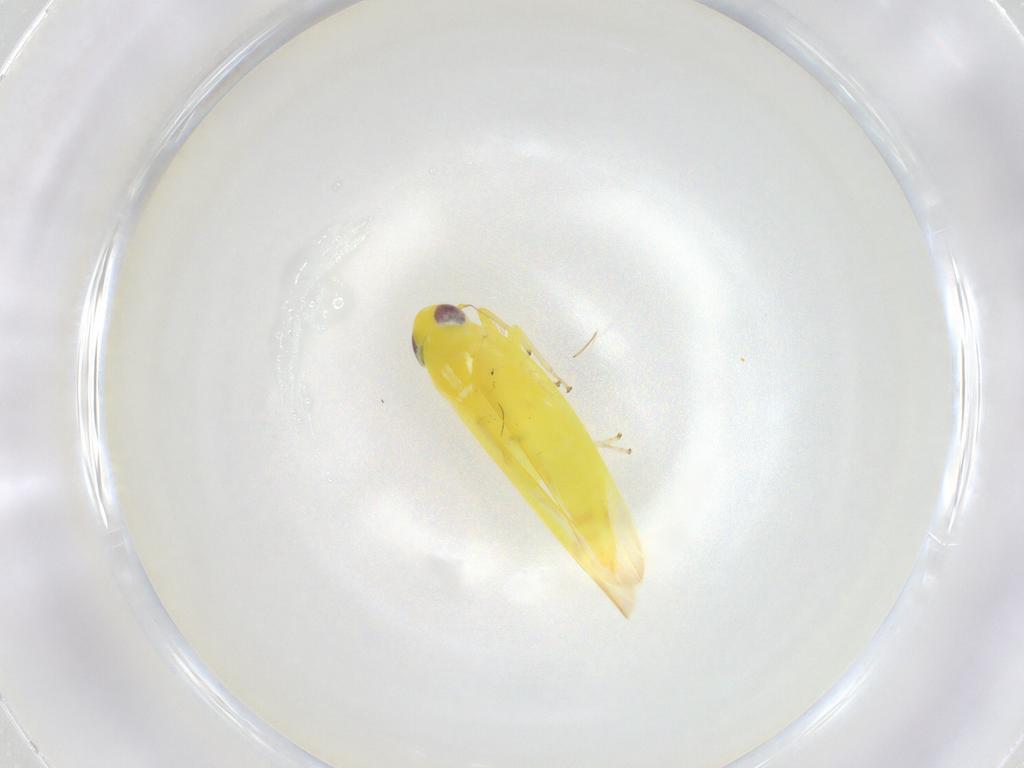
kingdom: Animalia
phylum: Arthropoda
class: Insecta
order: Hemiptera
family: Cicadellidae
